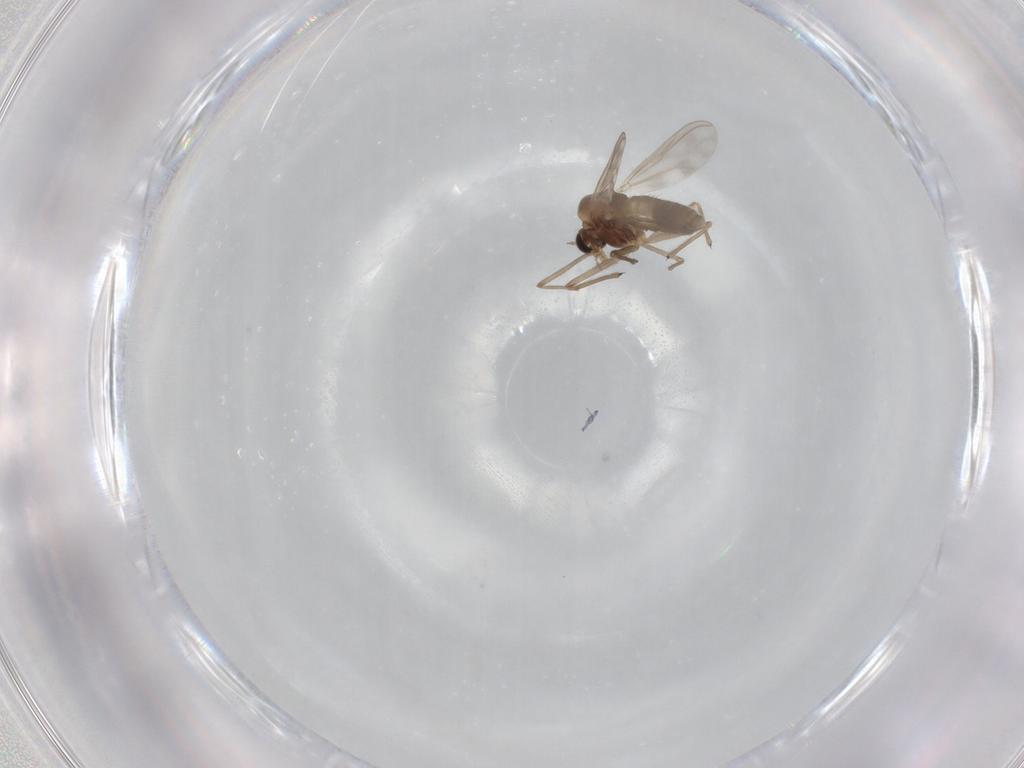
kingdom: Animalia
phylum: Arthropoda
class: Insecta
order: Diptera
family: Chironomidae
